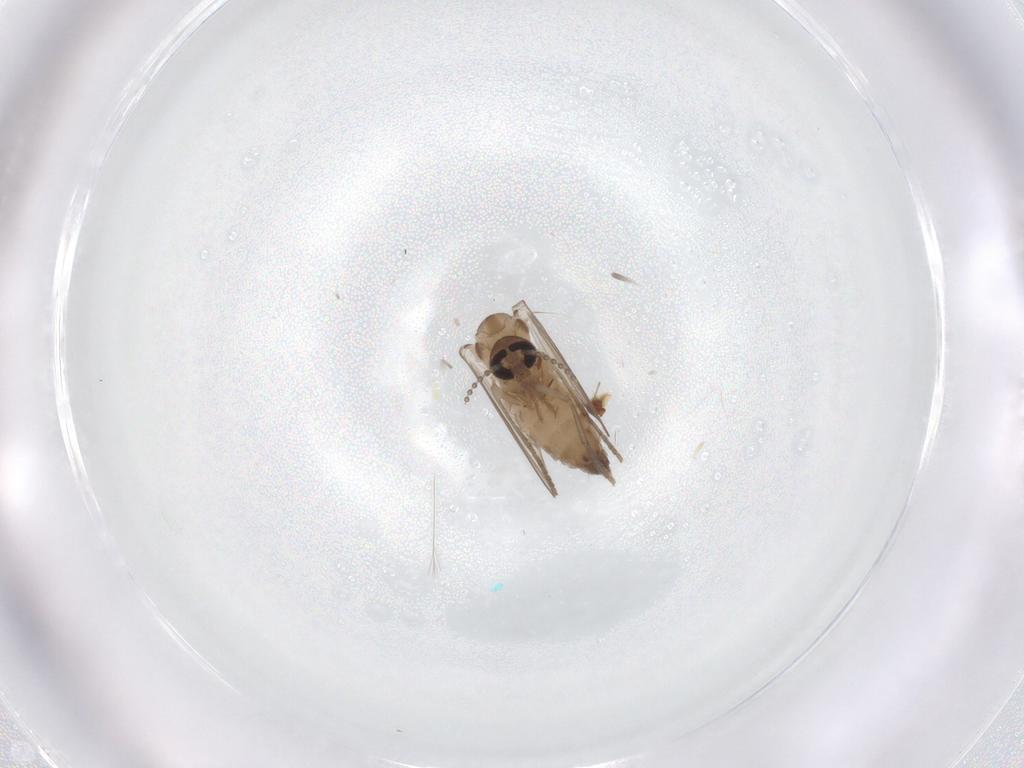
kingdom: Animalia
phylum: Arthropoda
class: Insecta
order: Diptera
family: Psychodidae
